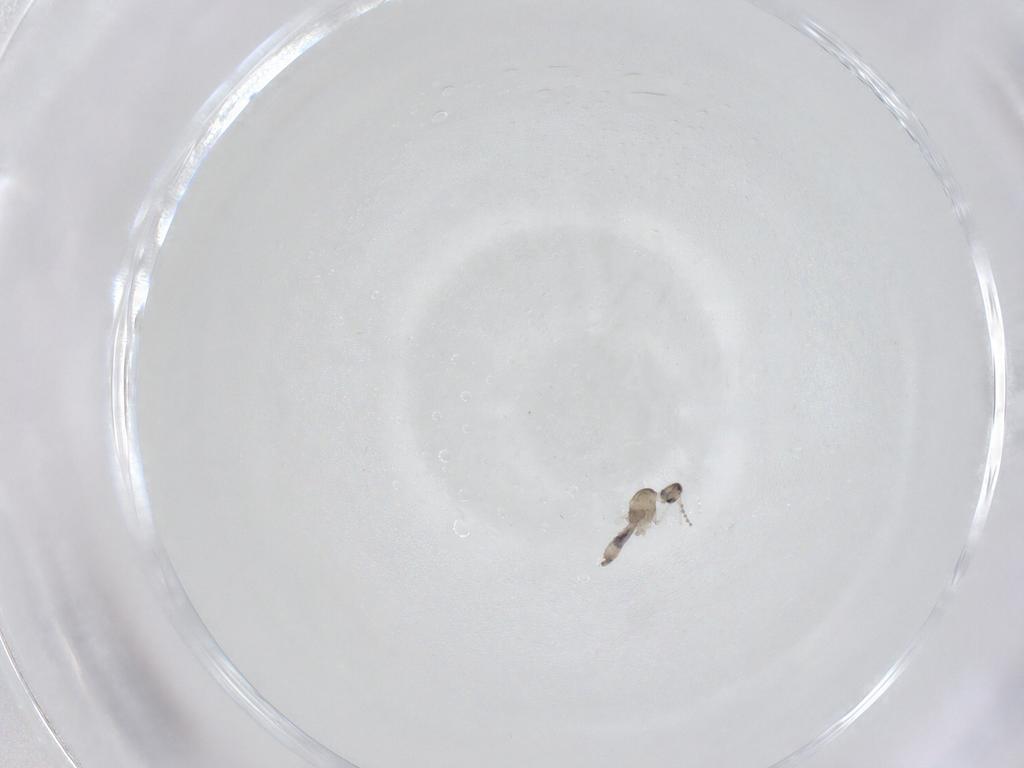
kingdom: Animalia
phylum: Arthropoda
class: Insecta
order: Diptera
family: Cecidomyiidae
